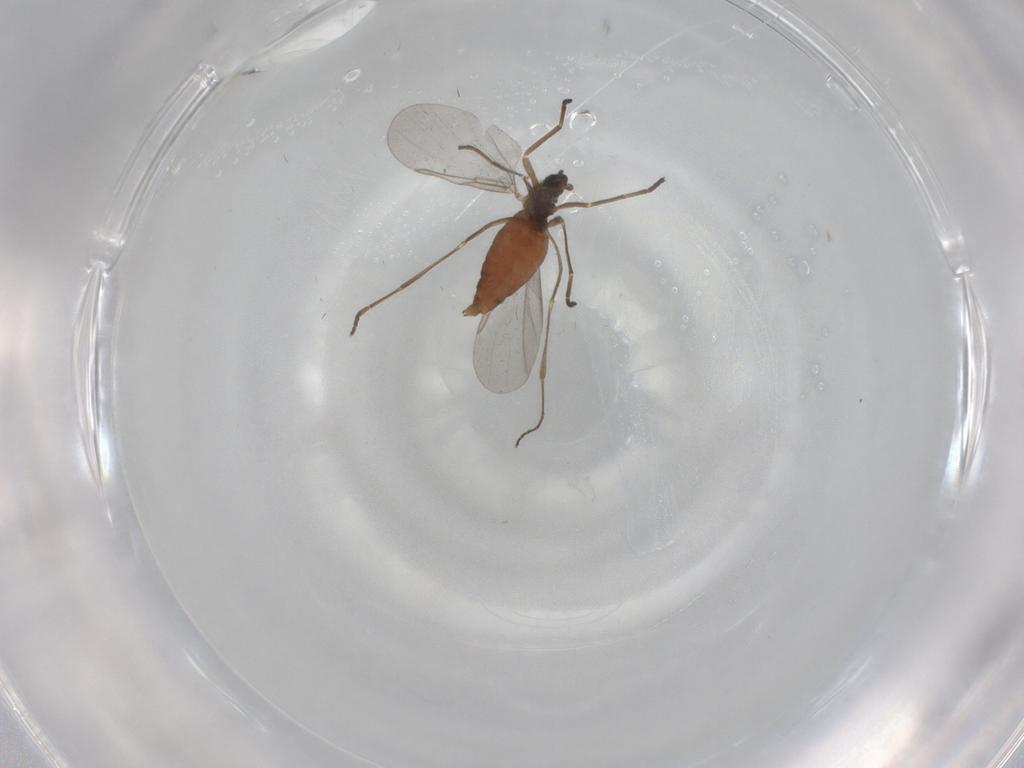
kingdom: Animalia
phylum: Arthropoda
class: Insecta
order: Diptera
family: Cecidomyiidae
